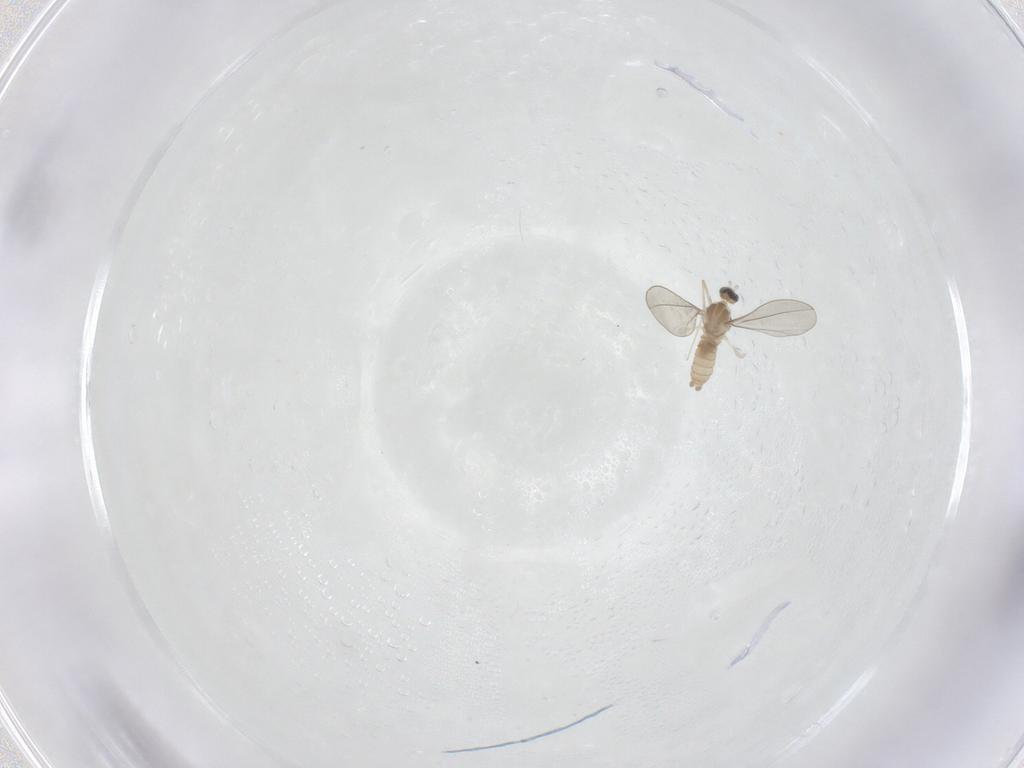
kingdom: Animalia
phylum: Arthropoda
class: Insecta
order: Diptera
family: Cecidomyiidae
